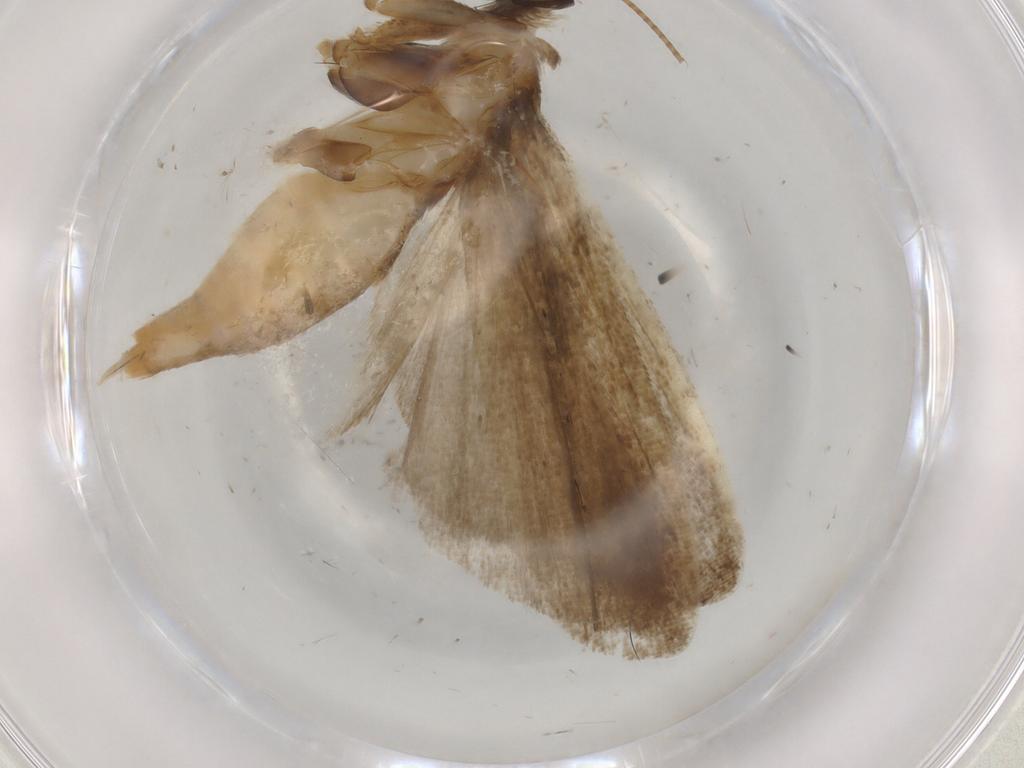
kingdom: Animalia
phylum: Arthropoda
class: Insecta
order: Lepidoptera
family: Noctuidae
